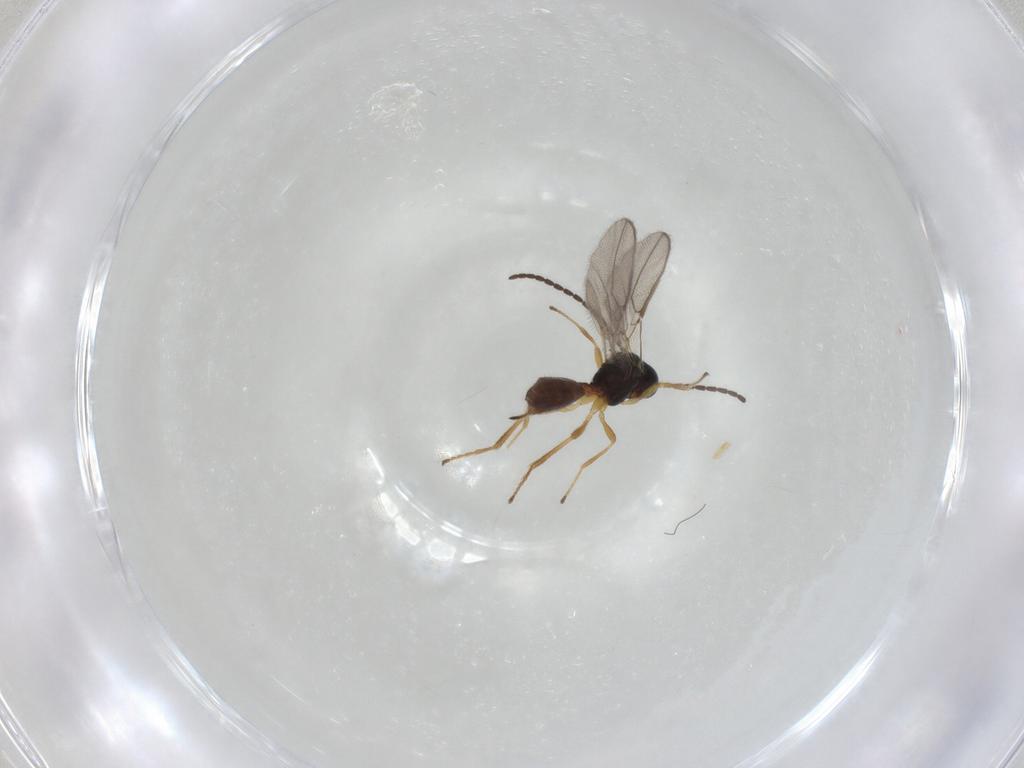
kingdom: Animalia
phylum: Arthropoda
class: Insecta
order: Hymenoptera
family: Braconidae
